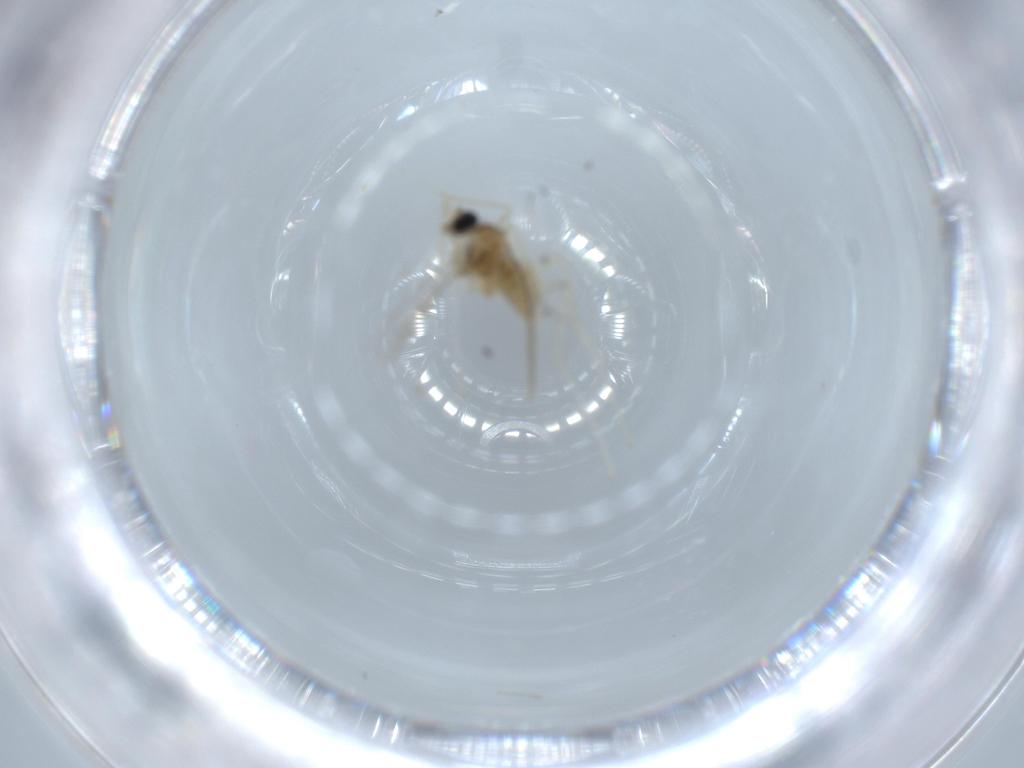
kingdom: Animalia
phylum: Arthropoda
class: Insecta
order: Diptera
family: Cecidomyiidae
